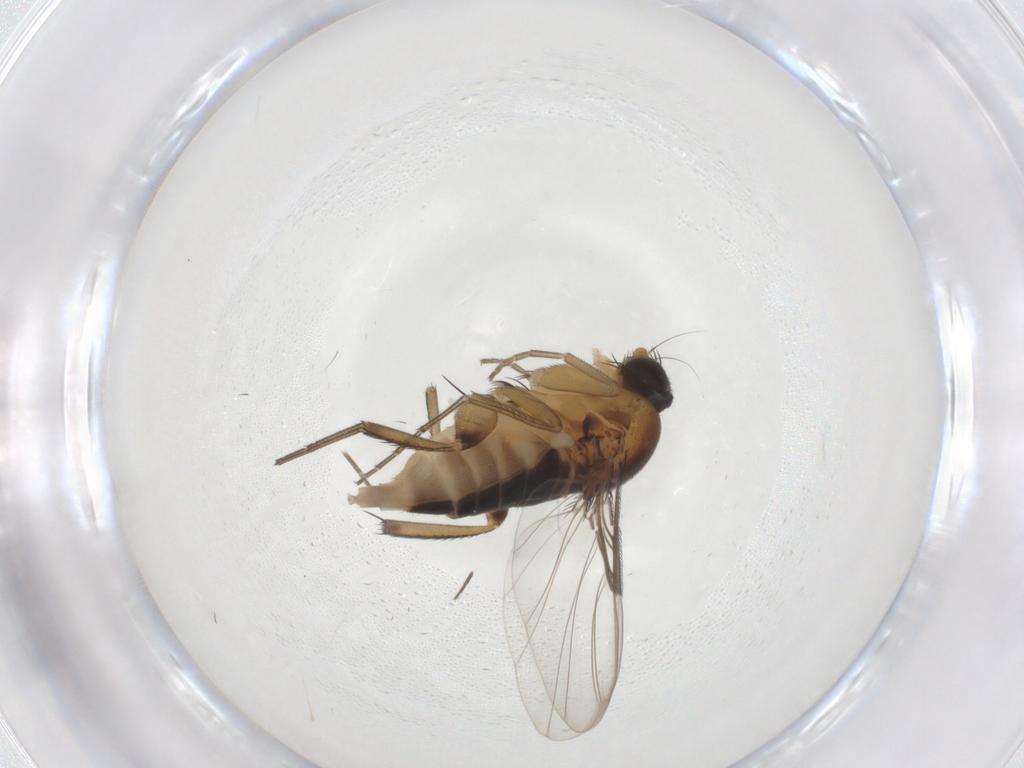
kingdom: Animalia
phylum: Arthropoda
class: Insecta
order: Diptera
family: Phoridae
